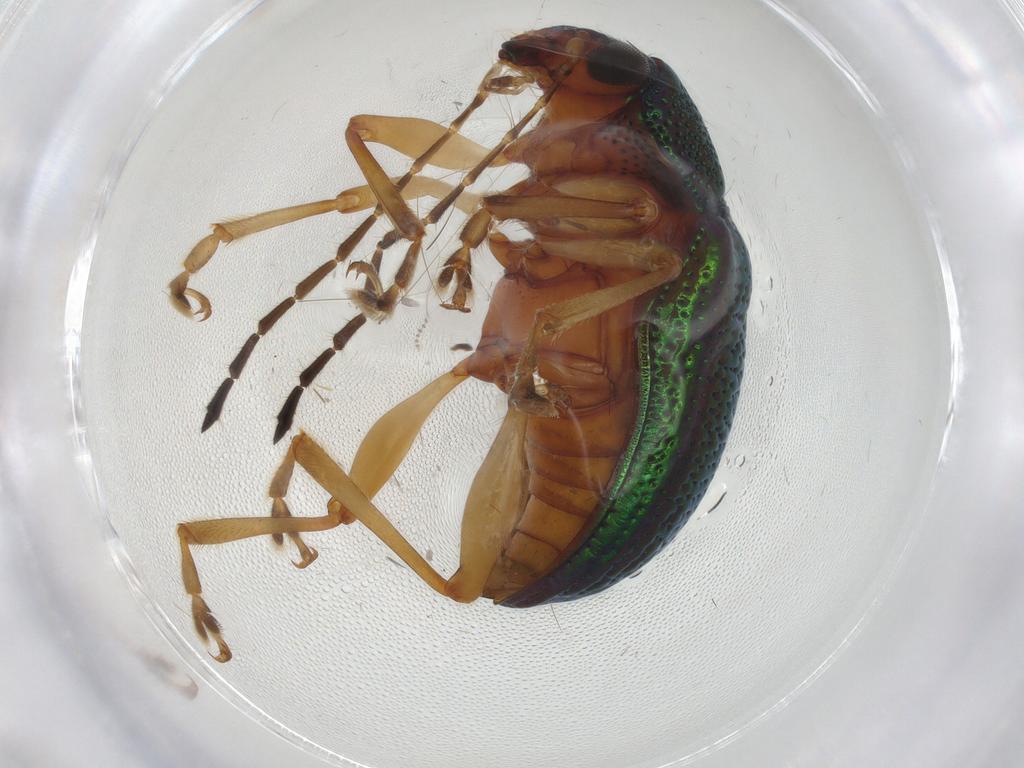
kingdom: Animalia
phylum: Arthropoda
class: Insecta
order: Coleoptera
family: Chrysomelidae
